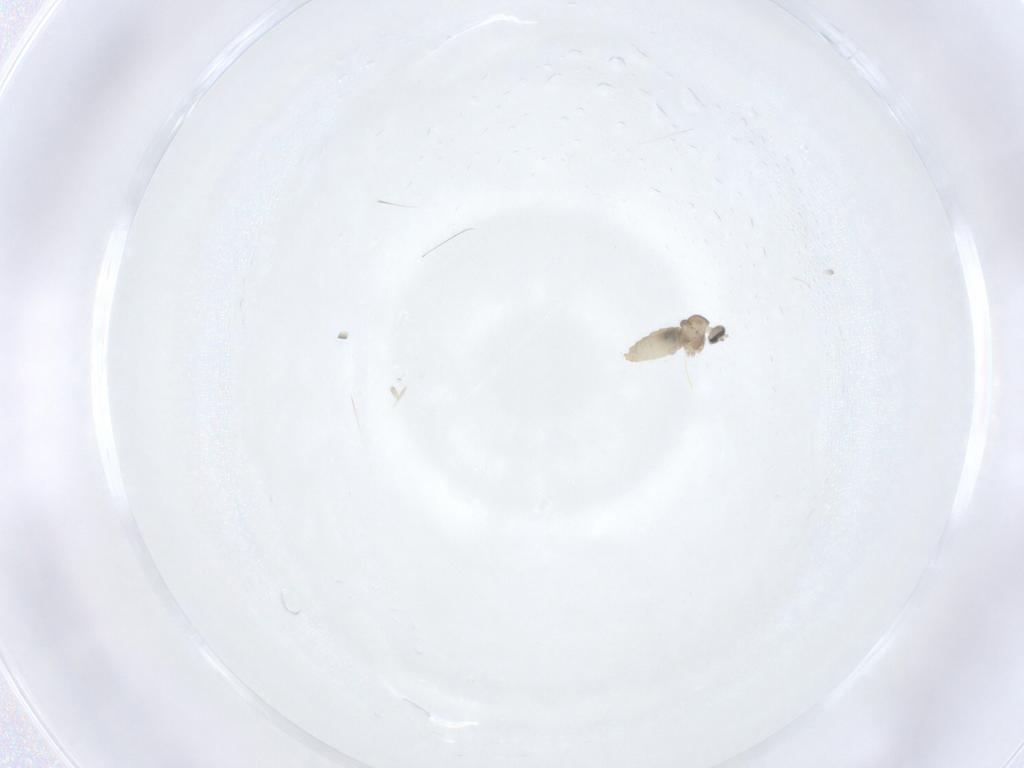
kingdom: Animalia
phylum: Arthropoda
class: Insecta
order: Diptera
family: Cecidomyiidae
